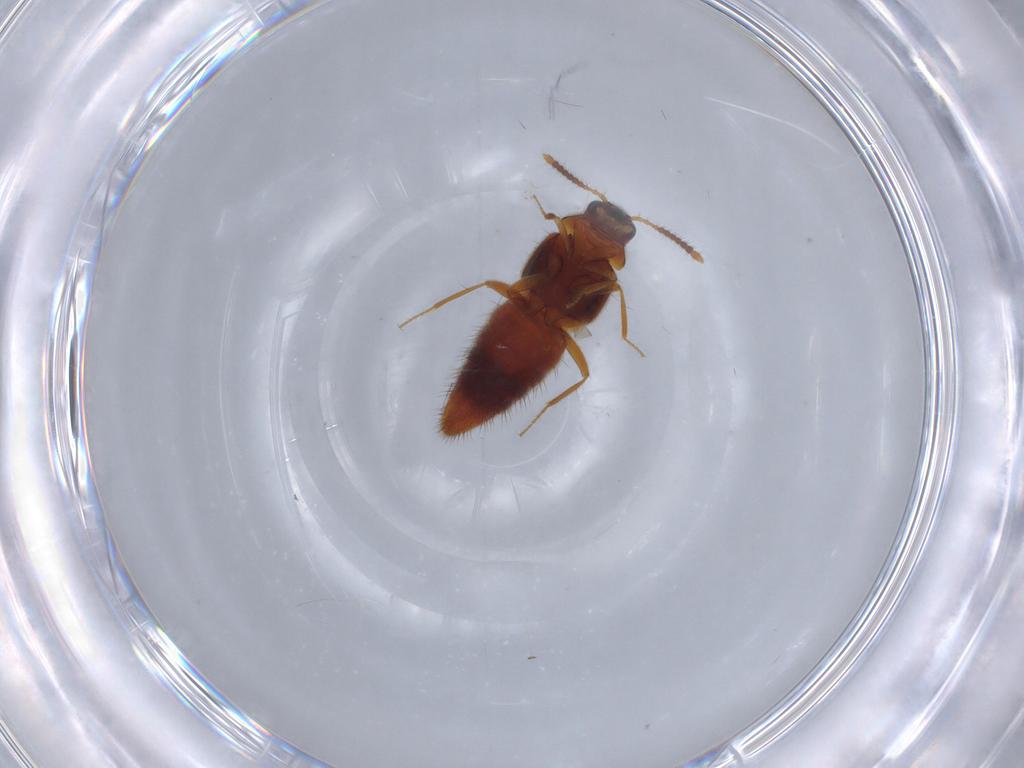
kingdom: Animalia
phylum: Arthropoda
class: Insecta
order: Coleoptera
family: Staphylinidae
